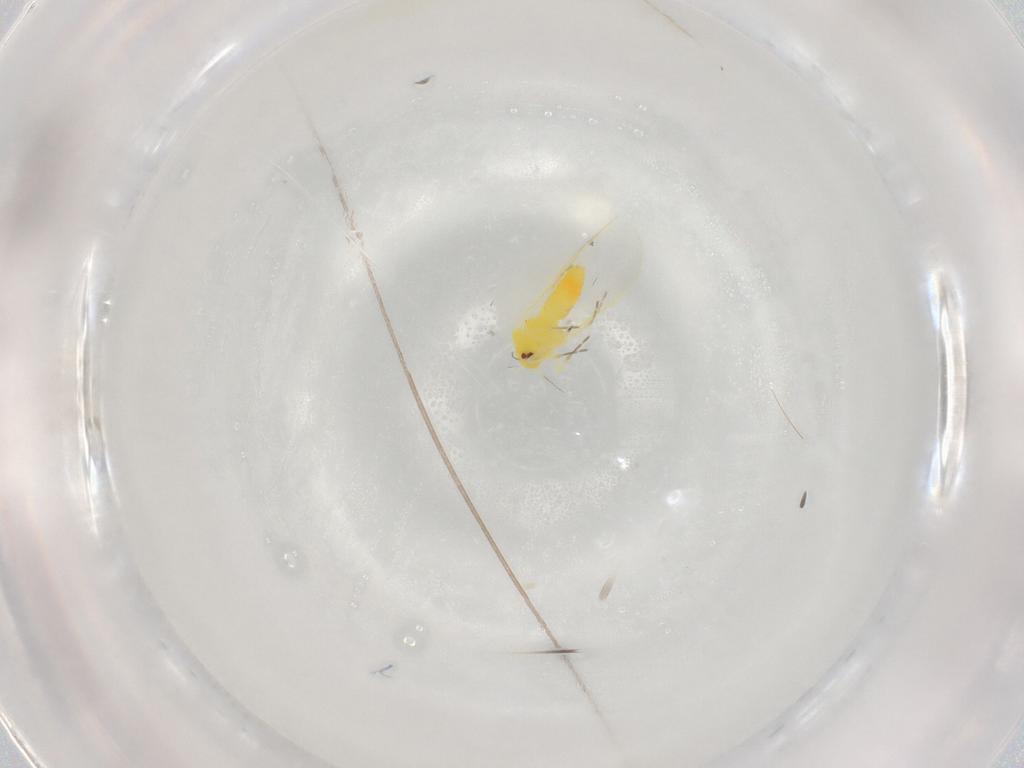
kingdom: Animalia
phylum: Arthropoda
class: Insecta
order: Hemiptera
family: Aleyrodidae
